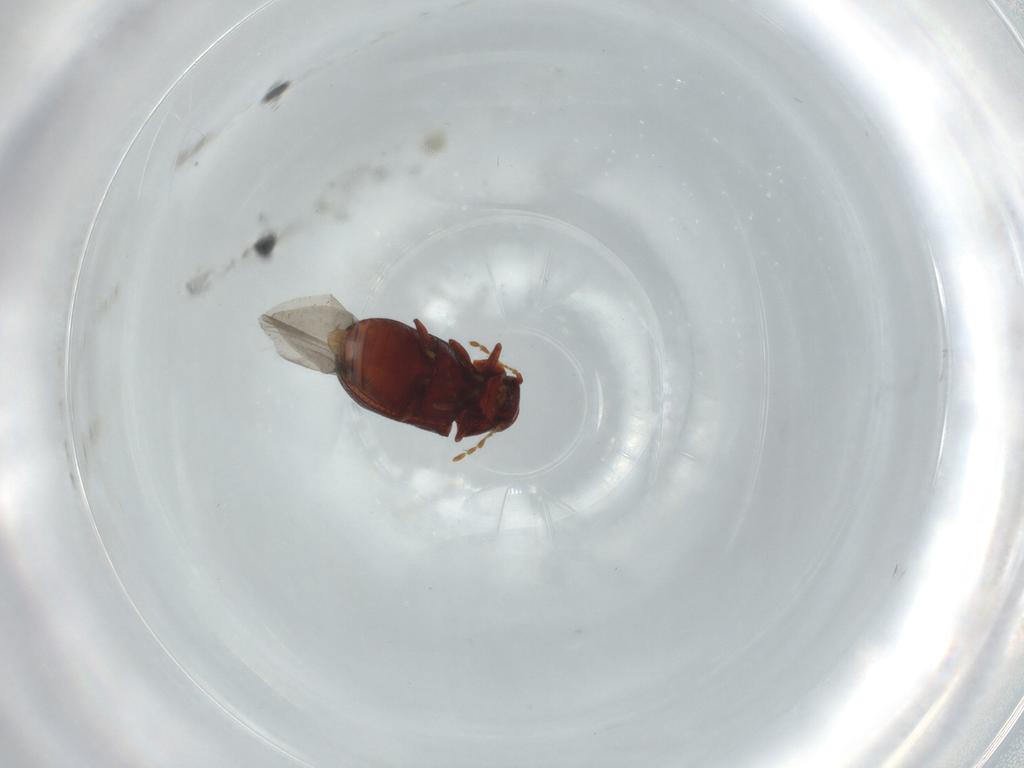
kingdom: Animalia
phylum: Arthropoda
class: Insecta
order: Coleoptera
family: Ptinidae
